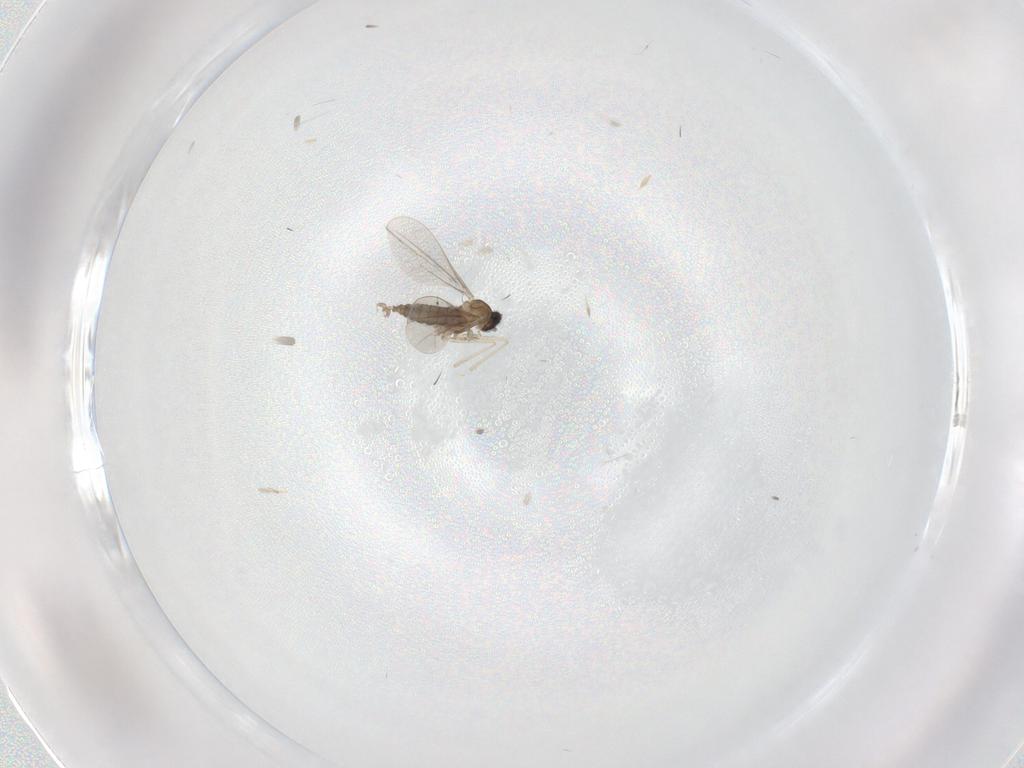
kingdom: Animalia
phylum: Arthropoda
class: Insecta
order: Diptera
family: Cecidomyiidae
